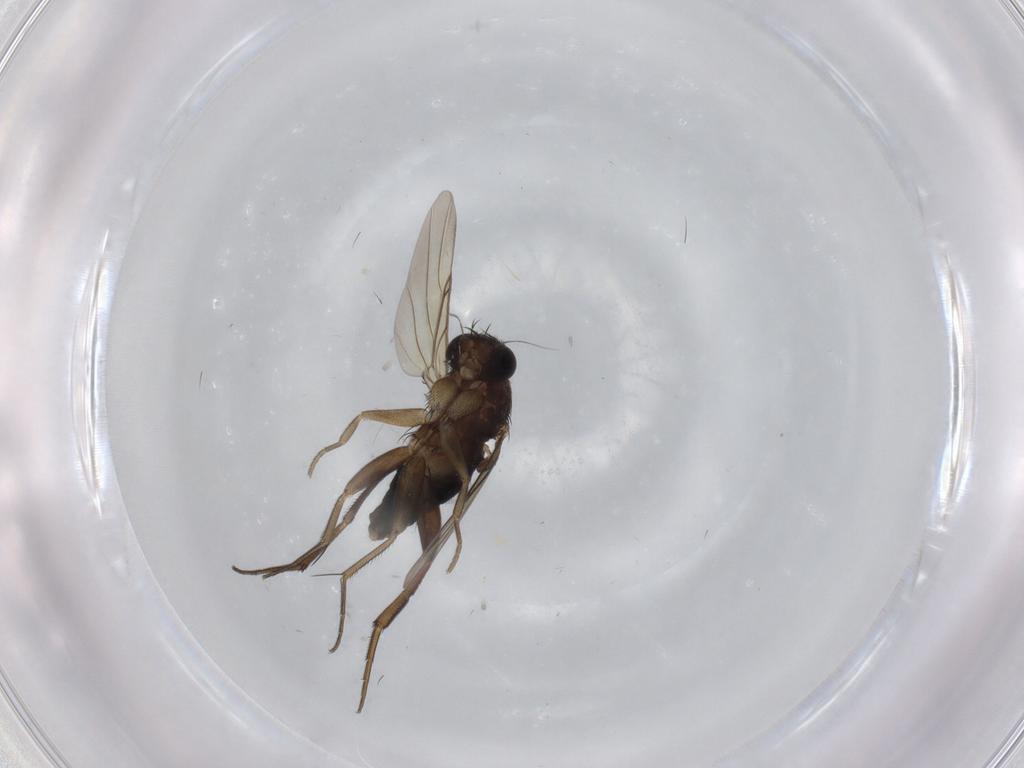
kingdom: Animalia
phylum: Arthropoda
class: Insecta
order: Diptera
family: Phoridae
